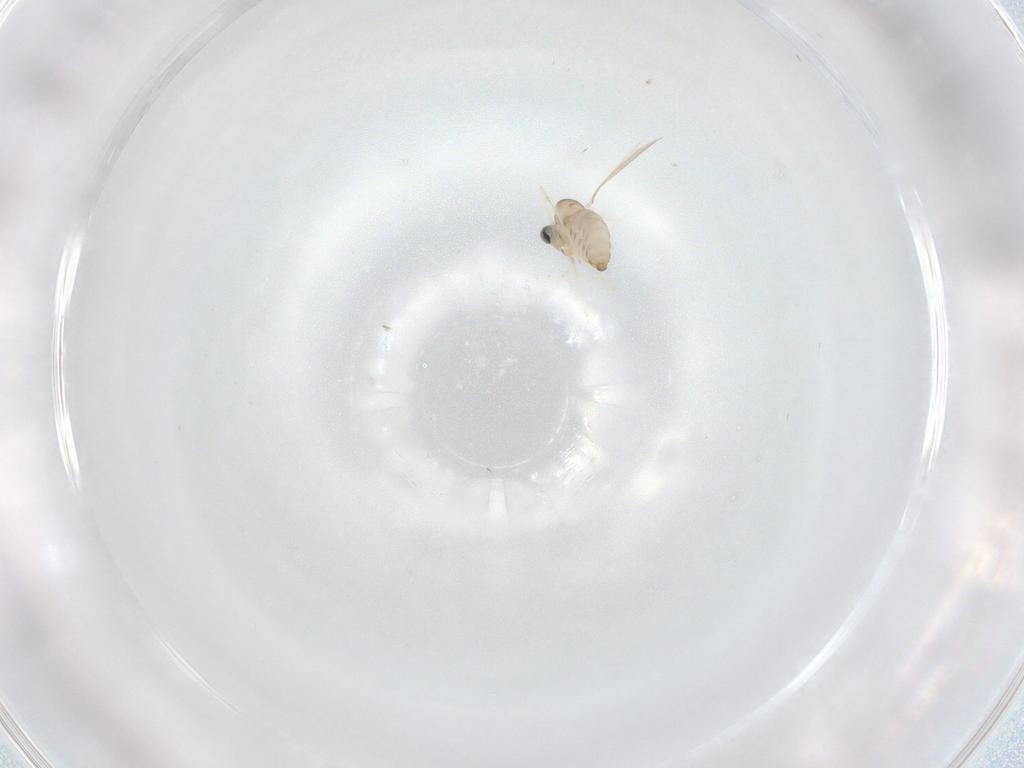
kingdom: Animalia
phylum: Arthropoda
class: Insecta
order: Diptera
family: Cecidomyiidae
